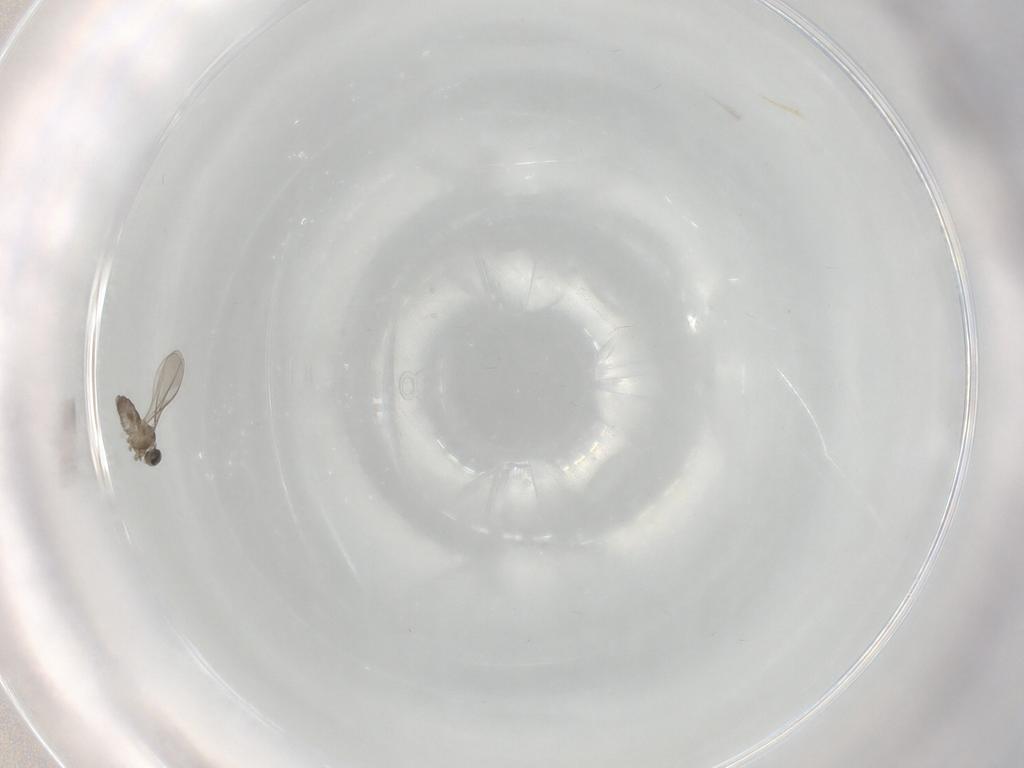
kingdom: Animalia
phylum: Arthropoda
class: Insecta
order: Diptera
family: Cecidomyiidae
